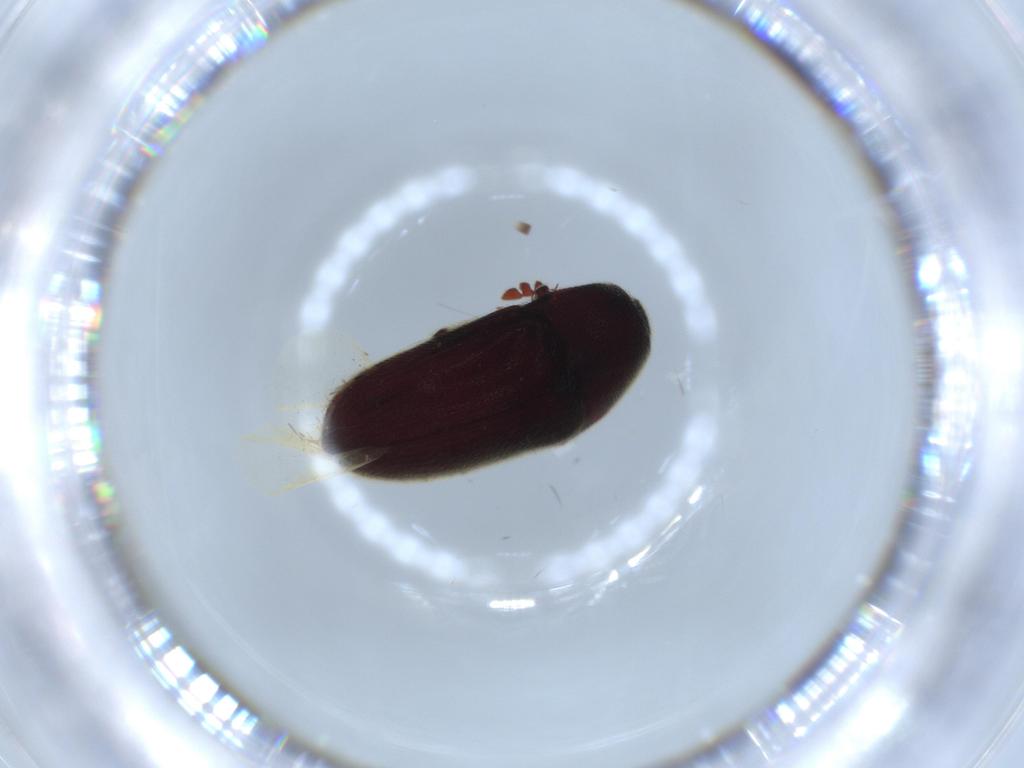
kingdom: Animalia
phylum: Arthropoda
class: Insecta
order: Coleoptera
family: Throscidae
